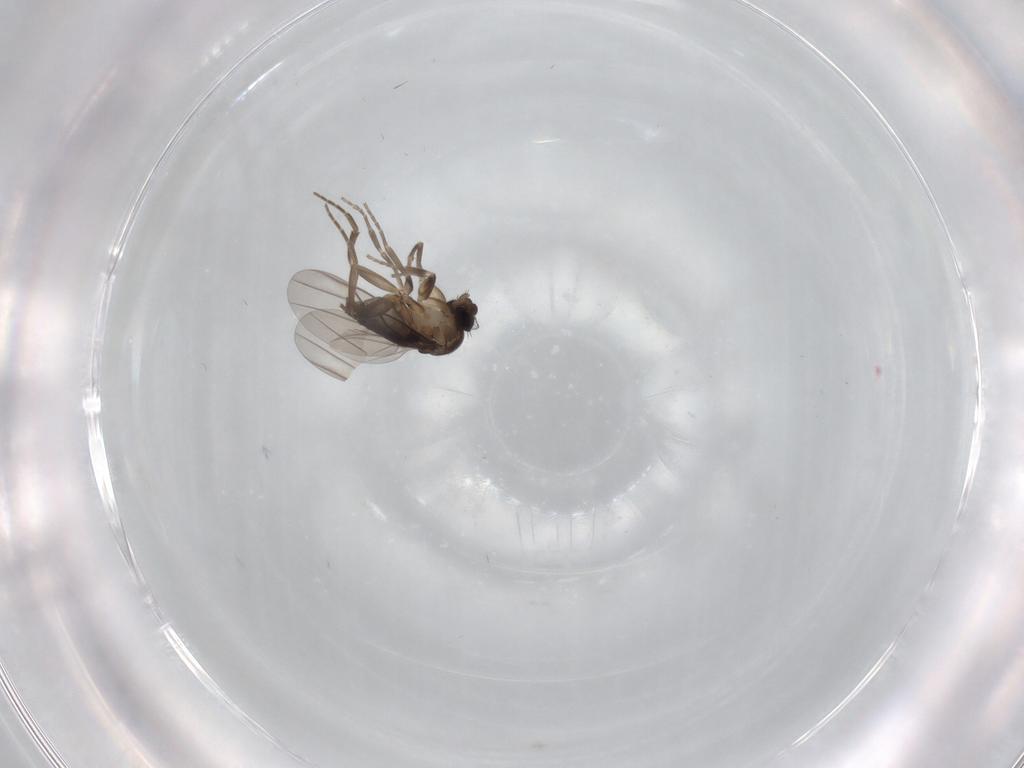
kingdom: Animalia
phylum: Arthropoda
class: Insecta
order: Diptera
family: Phoridae
